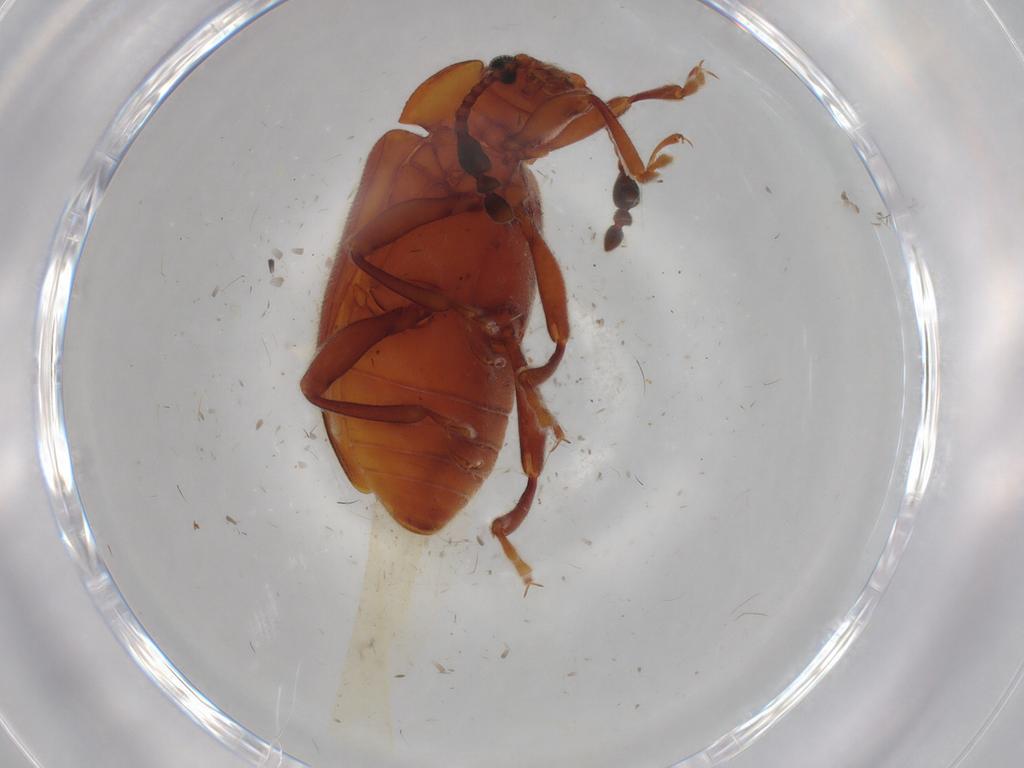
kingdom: Animalia
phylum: Arthropoda
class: Insecta
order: Coleoptera
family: Endomychidae
